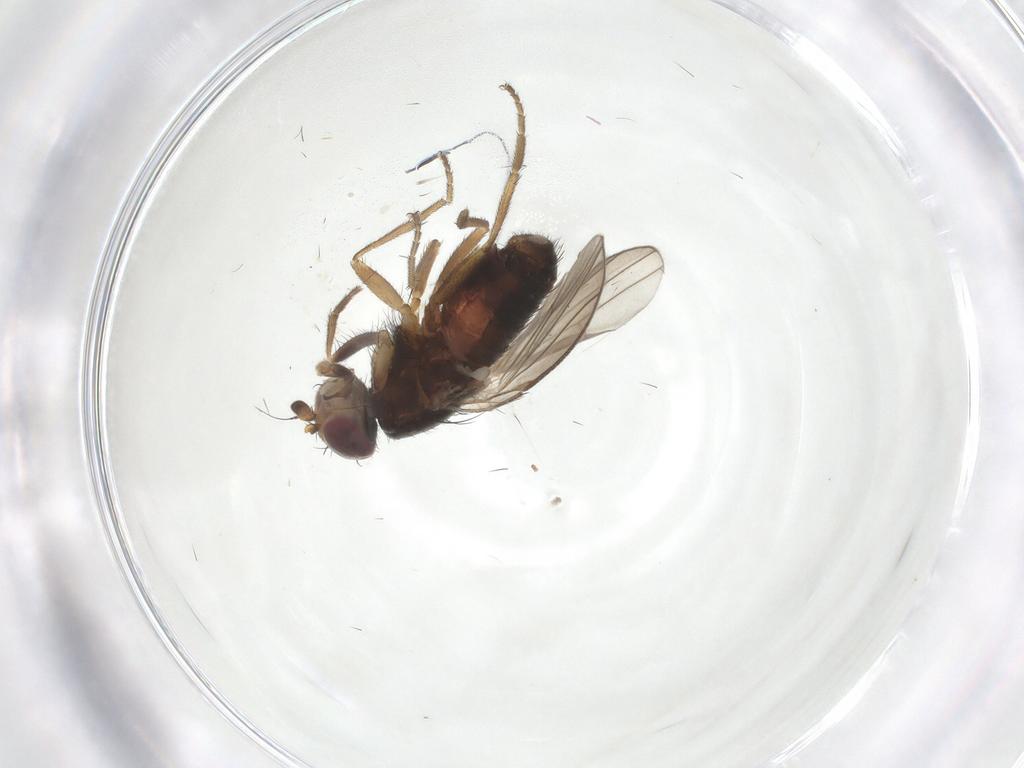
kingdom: Animalia
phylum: Arthropoda
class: Insecta
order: Diptera
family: Heleomyzidae
